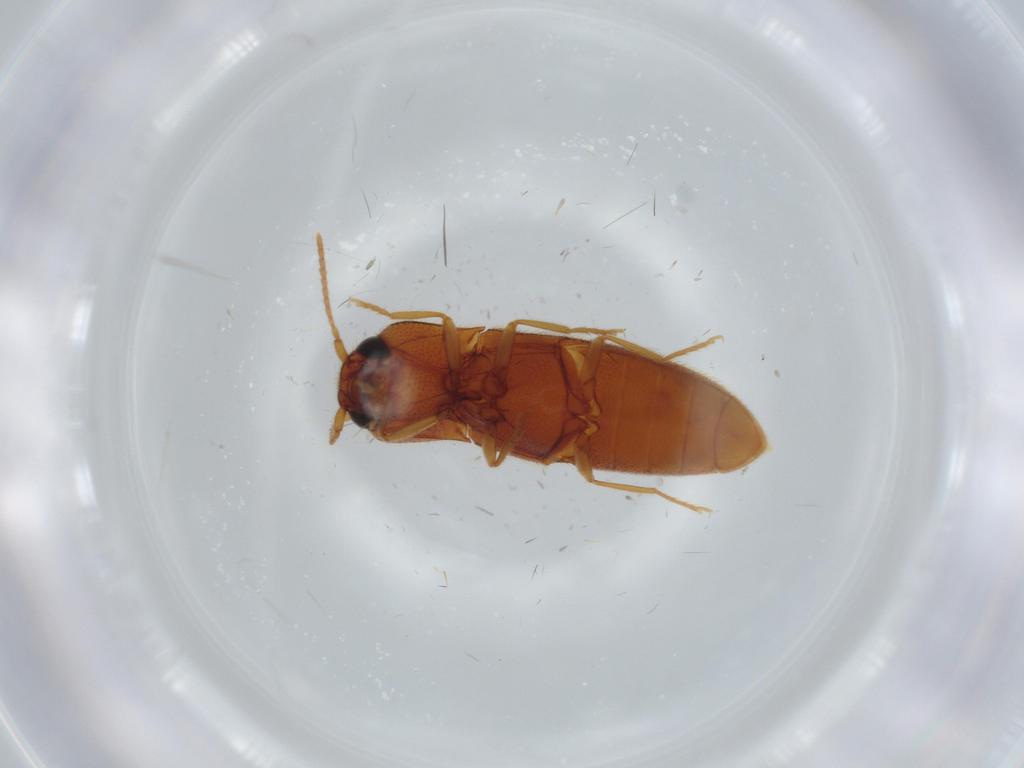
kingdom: Animalia
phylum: Arthropoda
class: Insecta
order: Coleoptera
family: Elateridae
